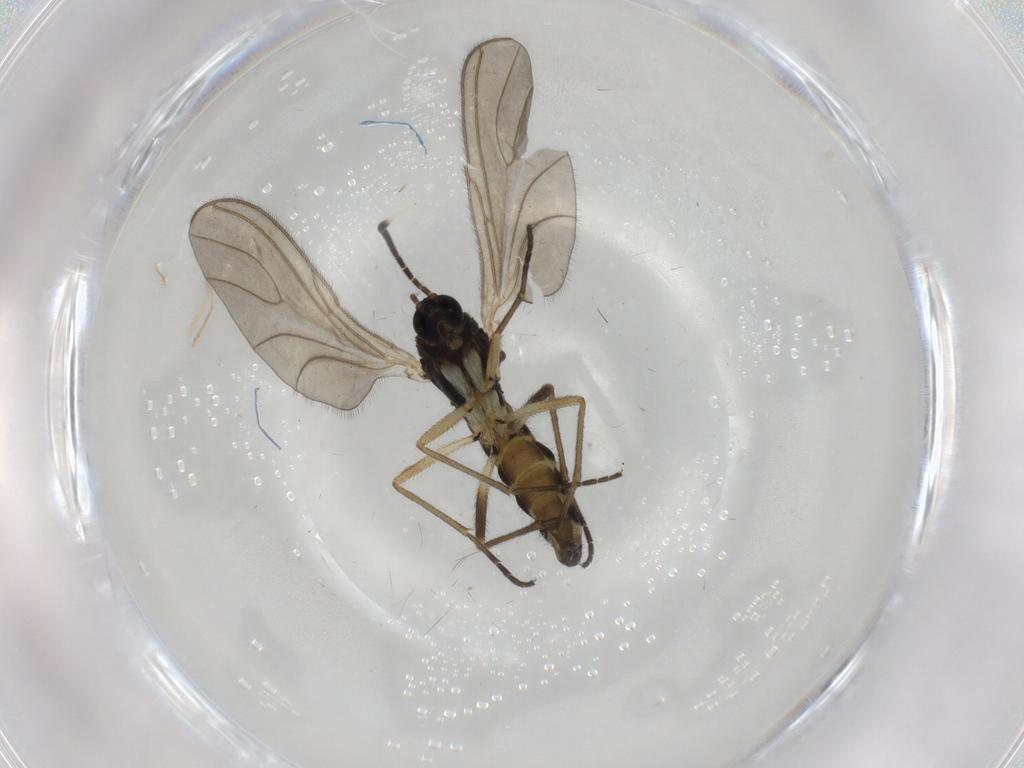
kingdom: Animalia
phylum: Arthropoda
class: Insecta
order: Diptera
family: Sciaridae
